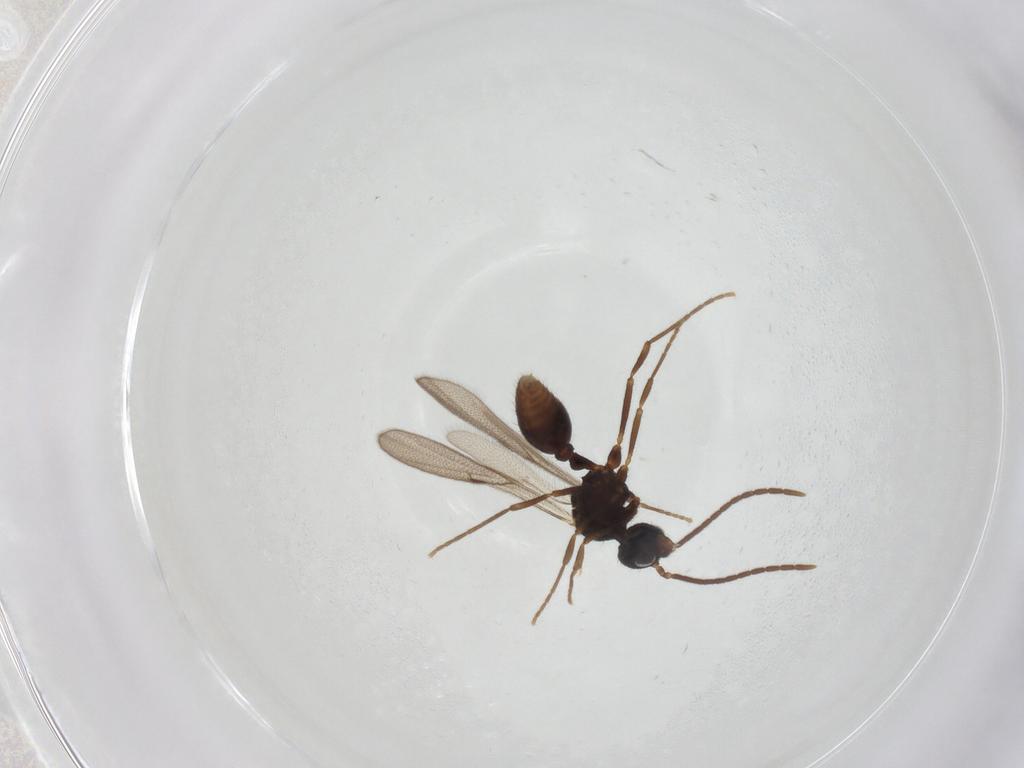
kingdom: Animalia
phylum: Arthropoda
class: Insecta
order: Hymenoptera
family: Formicidae
